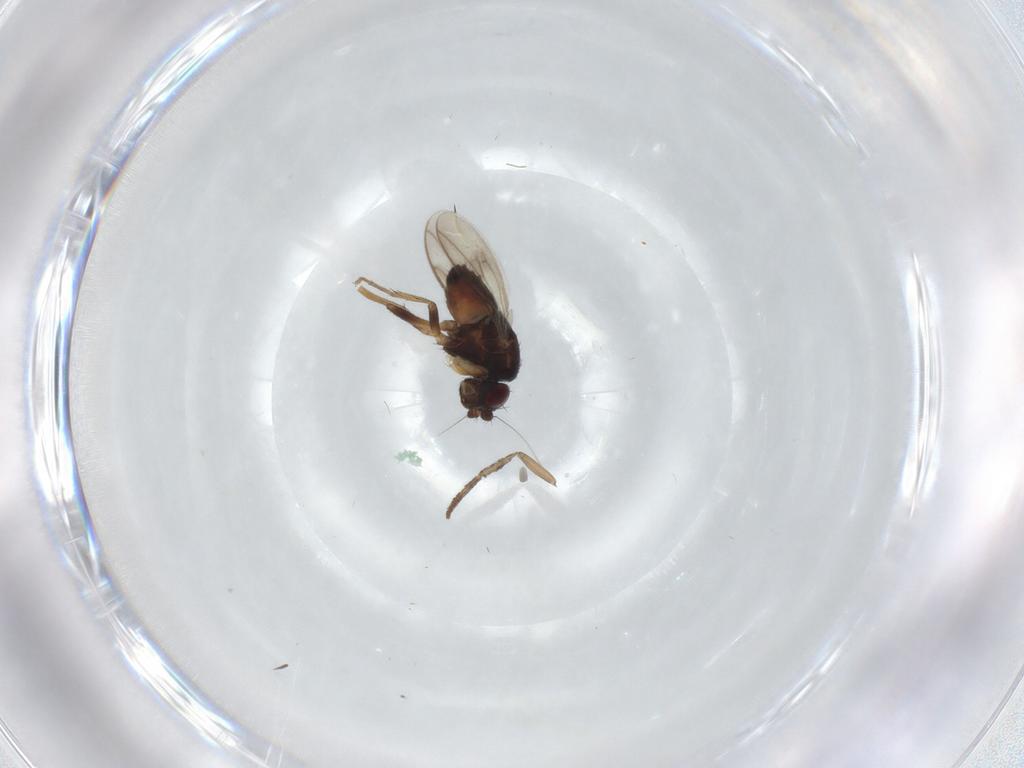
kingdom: Animalia
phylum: Arthropoda
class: Insecta
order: Diptera
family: Sphaeroceridae
